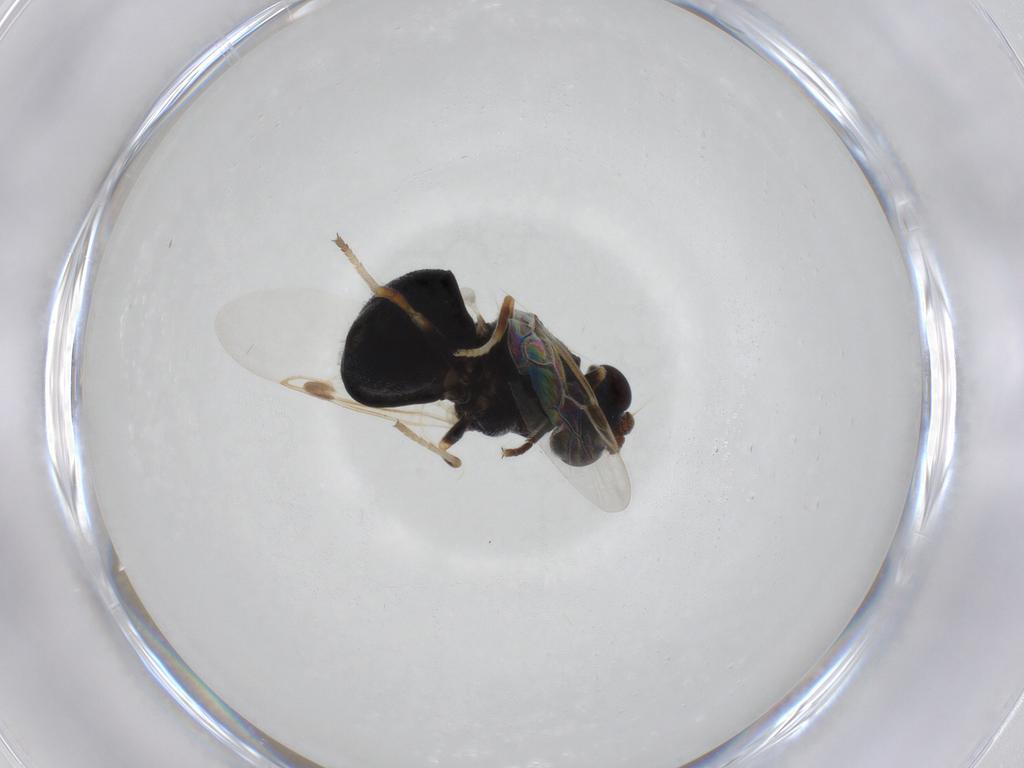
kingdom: Animalia
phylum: Arthropoda
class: Insecta
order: Diptera
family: Stratiomyidae
